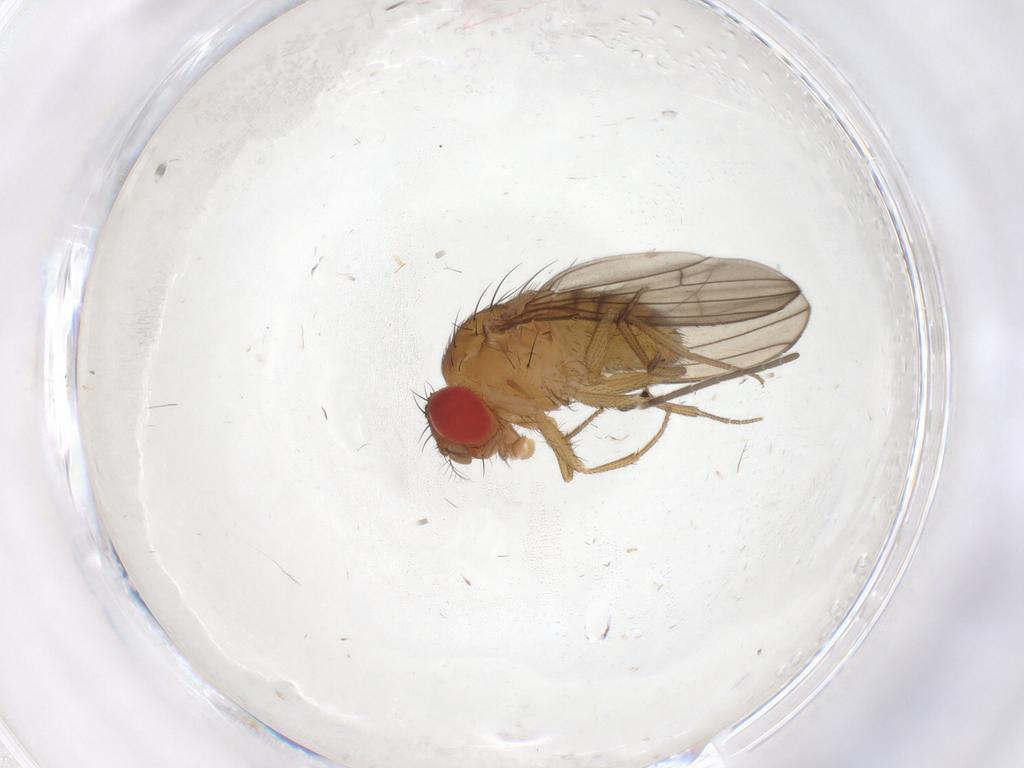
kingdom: Animalia
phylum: Arthropoda
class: Insecta
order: Diptera
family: Drosophilidae
